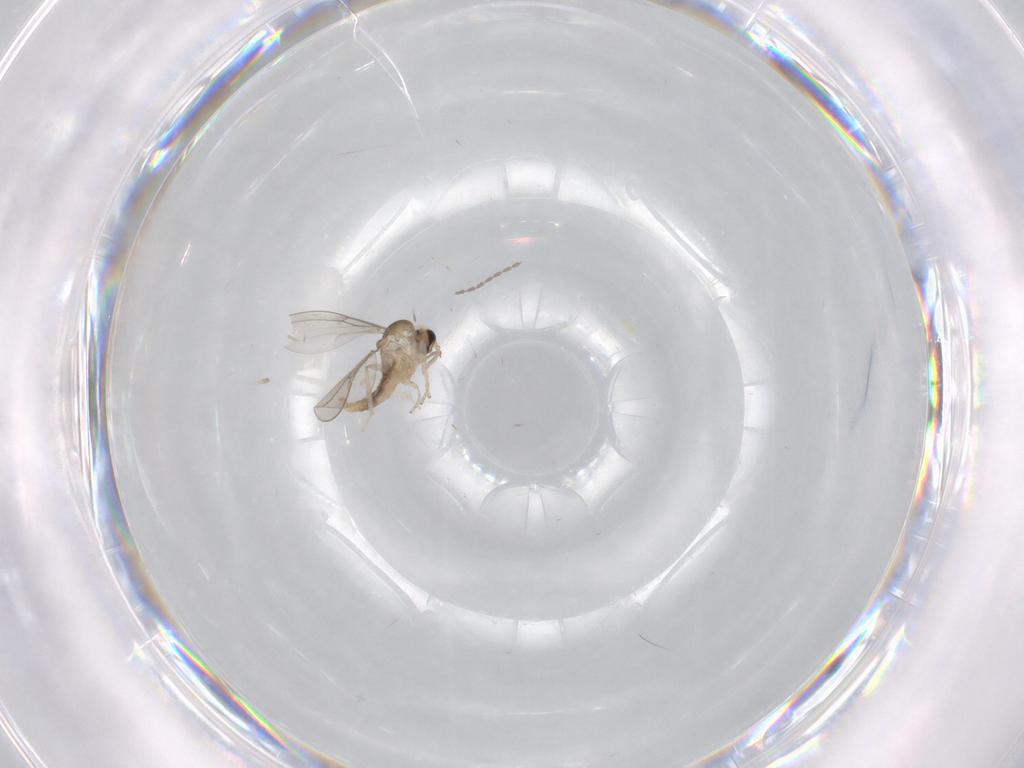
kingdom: Animalia
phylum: Arthropoda
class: Insecta
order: Diptera
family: Cecidomyiidae
